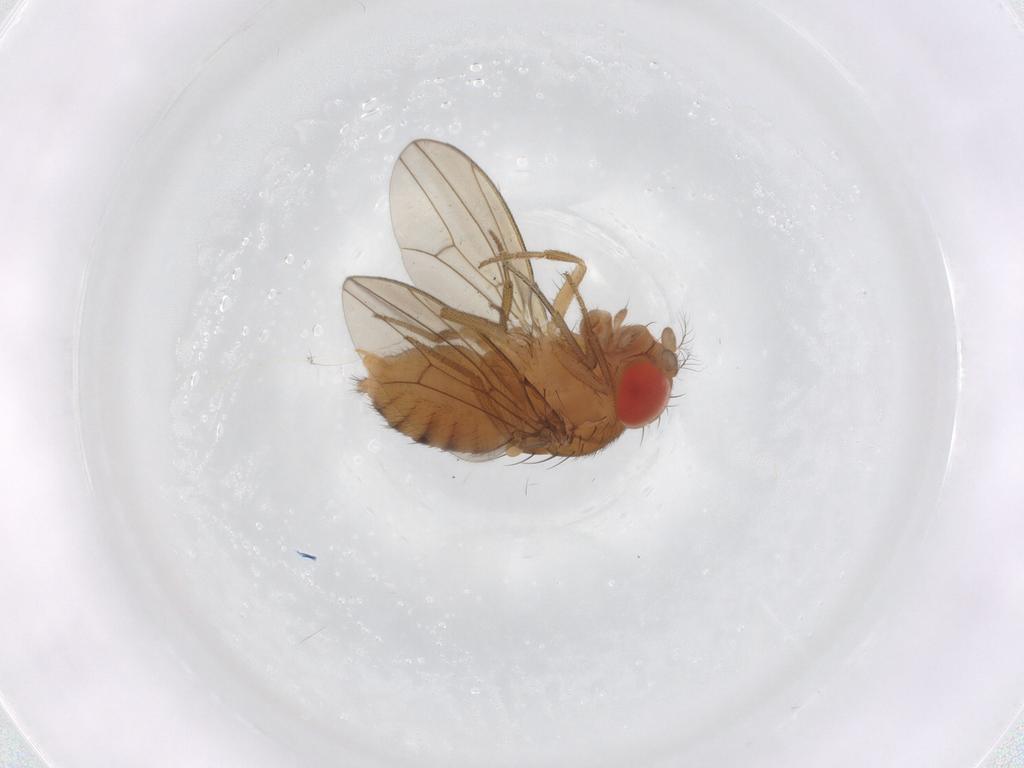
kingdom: Animalia
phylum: Arthropoda
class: Insecta
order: Diptera
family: Drosophilidae
